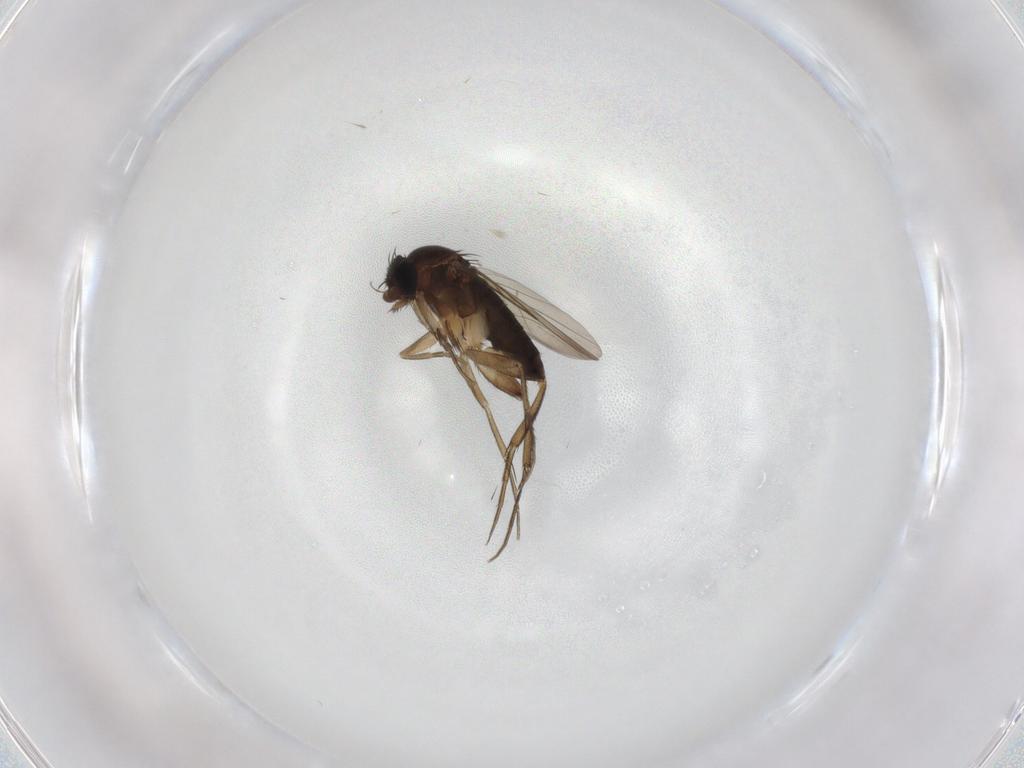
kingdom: Animalia
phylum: Arthropoda
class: Insecta
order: Diptera
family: Phoridae
